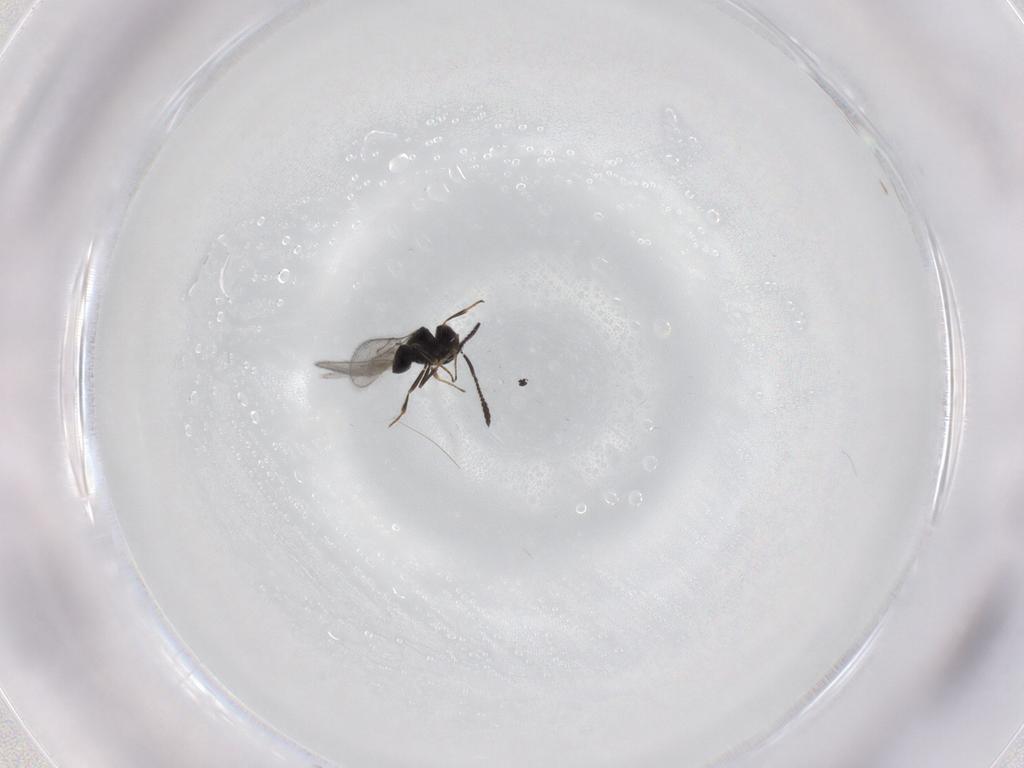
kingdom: Animalia
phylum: Arthropoda
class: Insecta
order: Hymenoptera
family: Scelionidae
